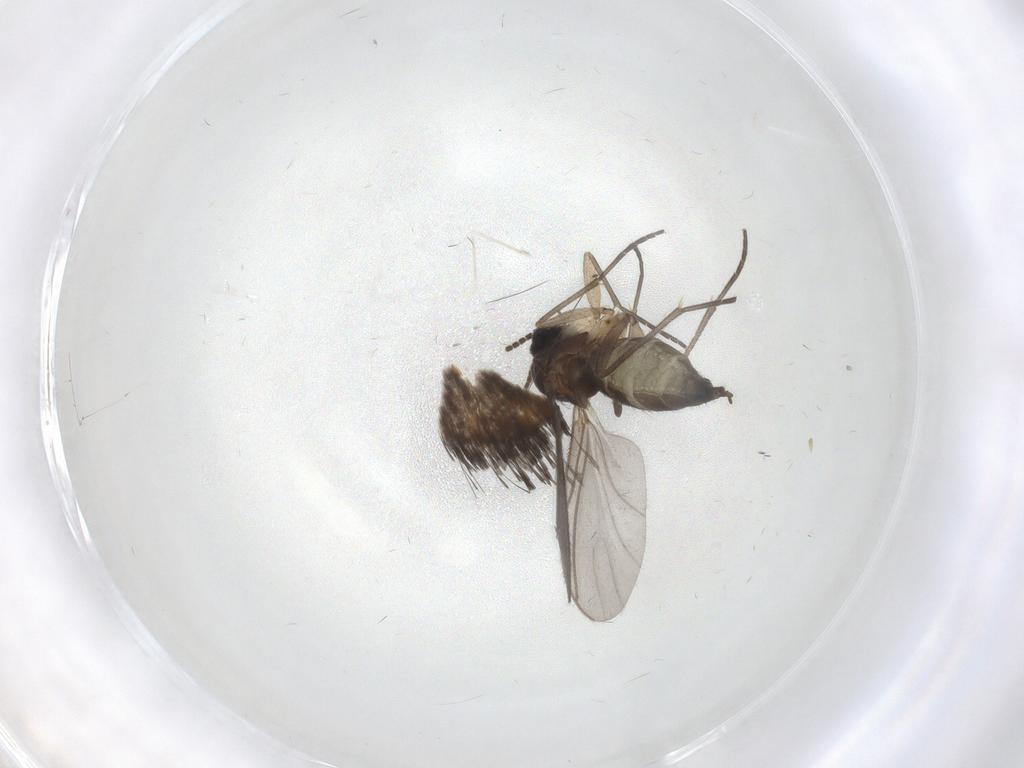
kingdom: Animalia
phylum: Arthropoda
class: Insecta
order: Diptera
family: Sciaridae
